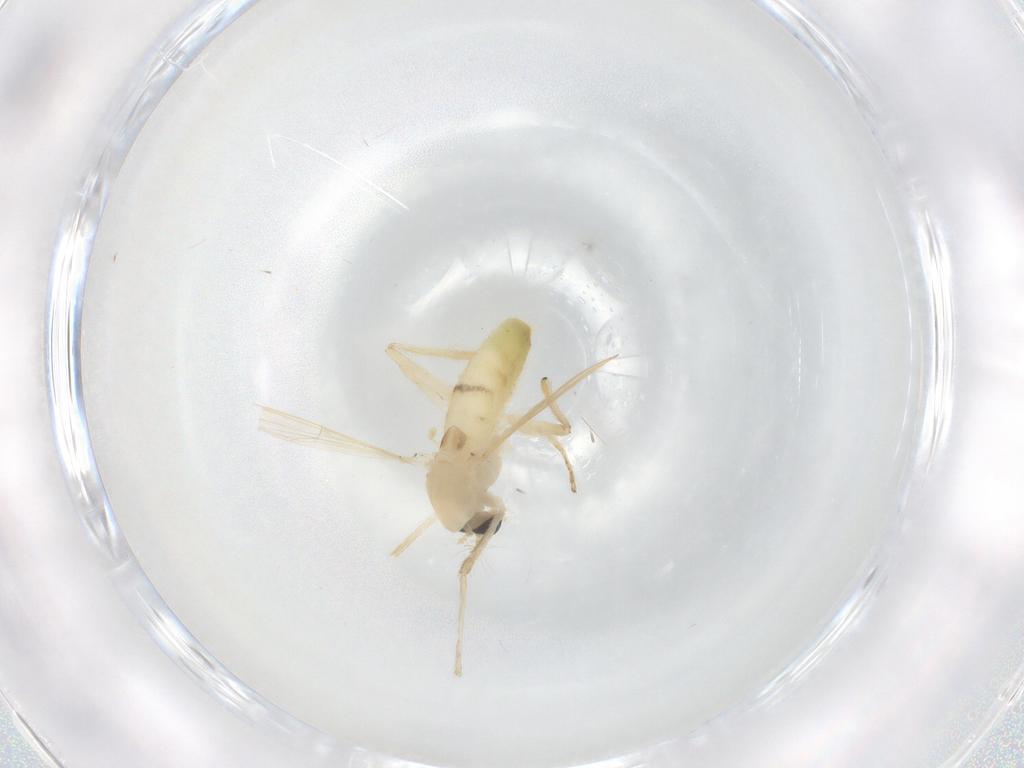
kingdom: Animalia
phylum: Arthropoda
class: Insecta
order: Diptera
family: Chironomidae
